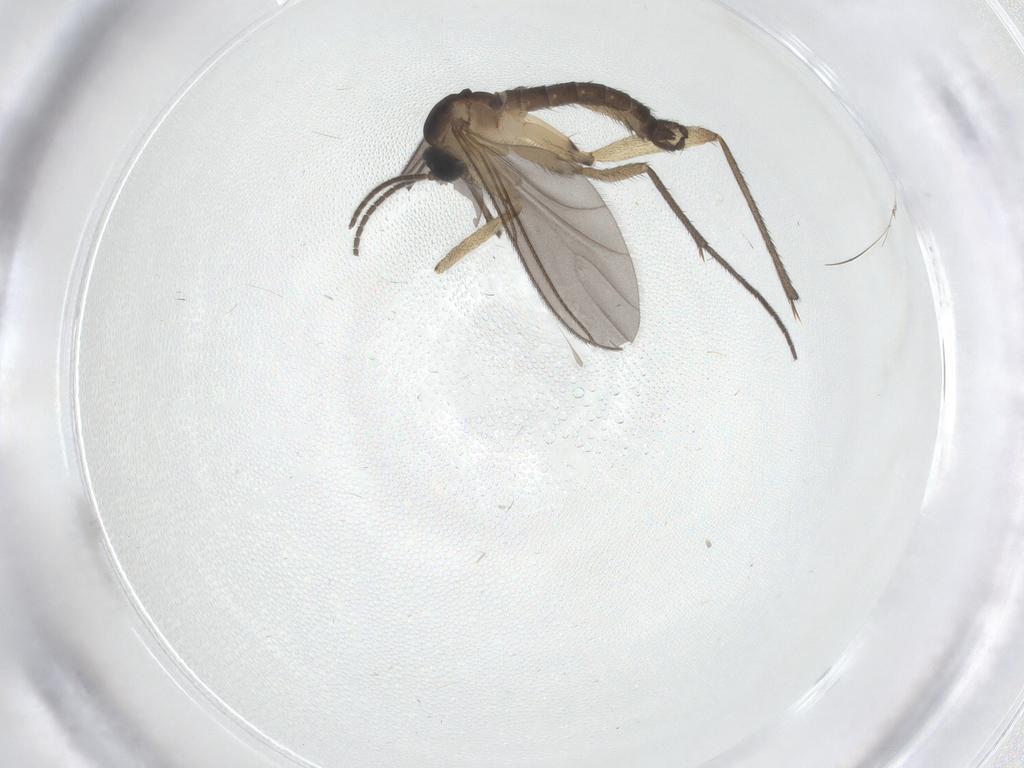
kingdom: Animalia
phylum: Arthropoda
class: Insecta
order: Diptera
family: Sciaridae
